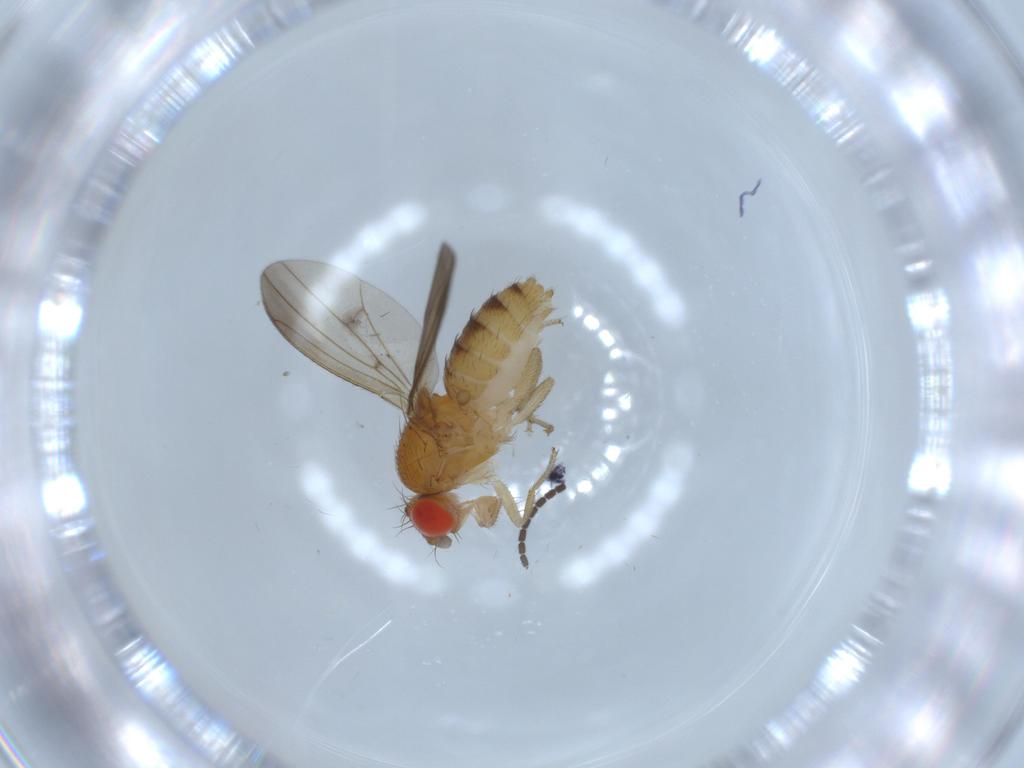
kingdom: Animalia
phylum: Arthropoda
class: Insecta
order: Diptera
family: Drosophilidae
